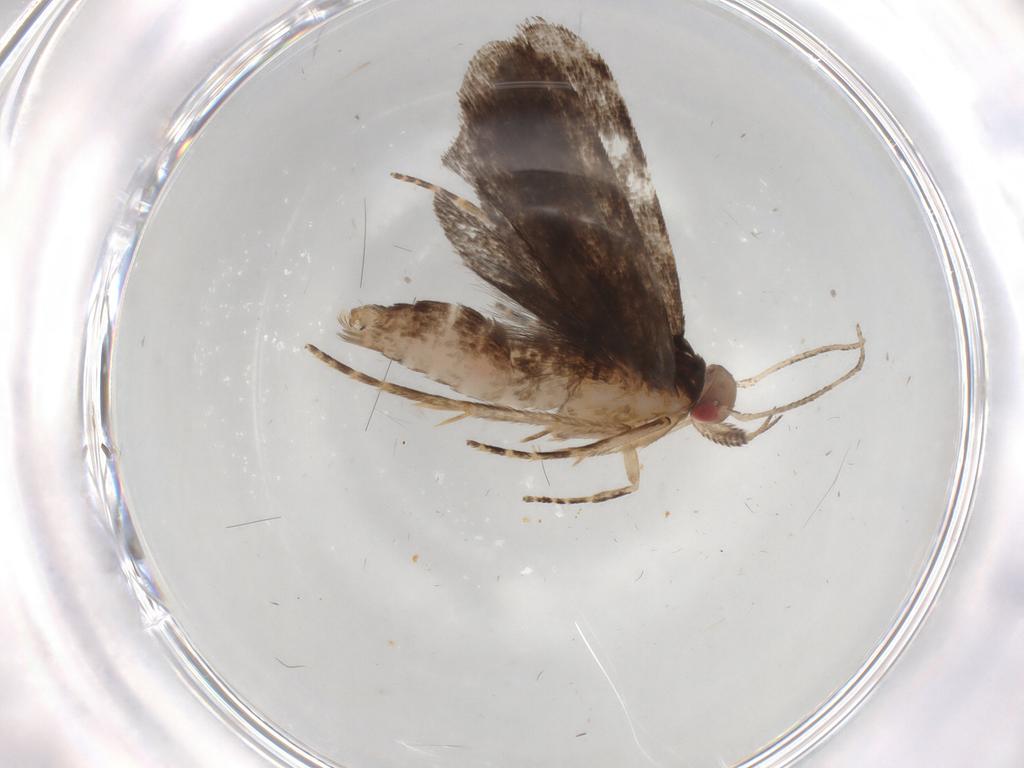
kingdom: Animalia
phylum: Arthropoda
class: Insecta
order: Lepidoptera
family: Gelechiidae
